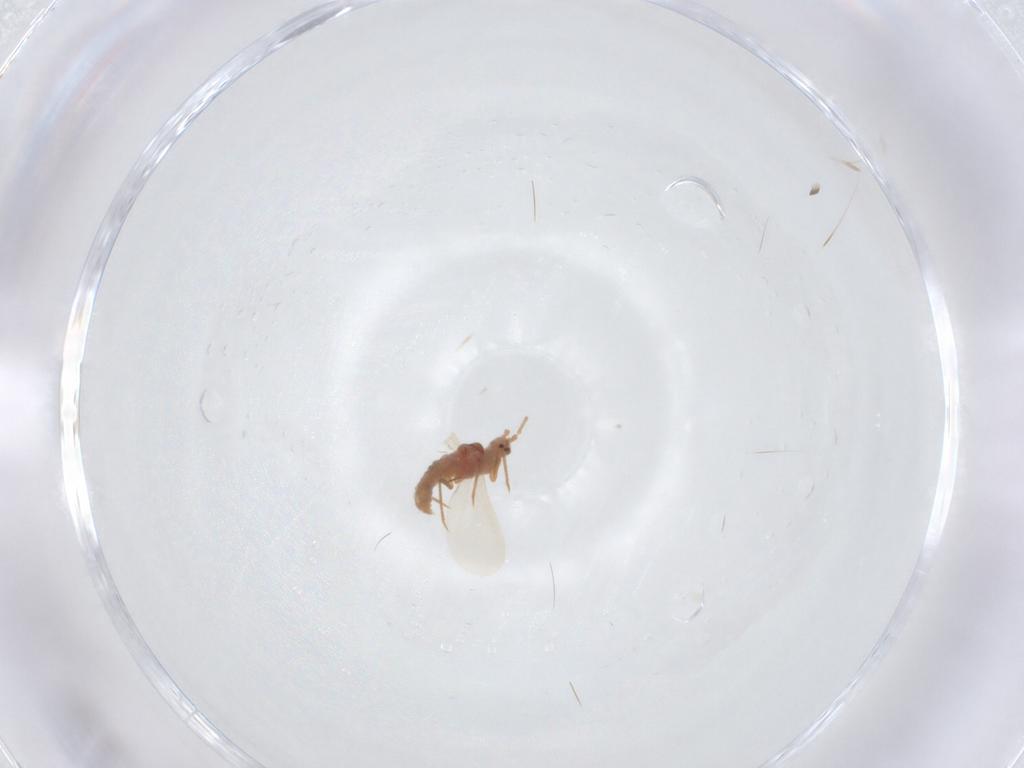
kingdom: Animalia
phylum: Arthropoda
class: Insecta
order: Hemiptera
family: Coccoidea_incertae_sedis
